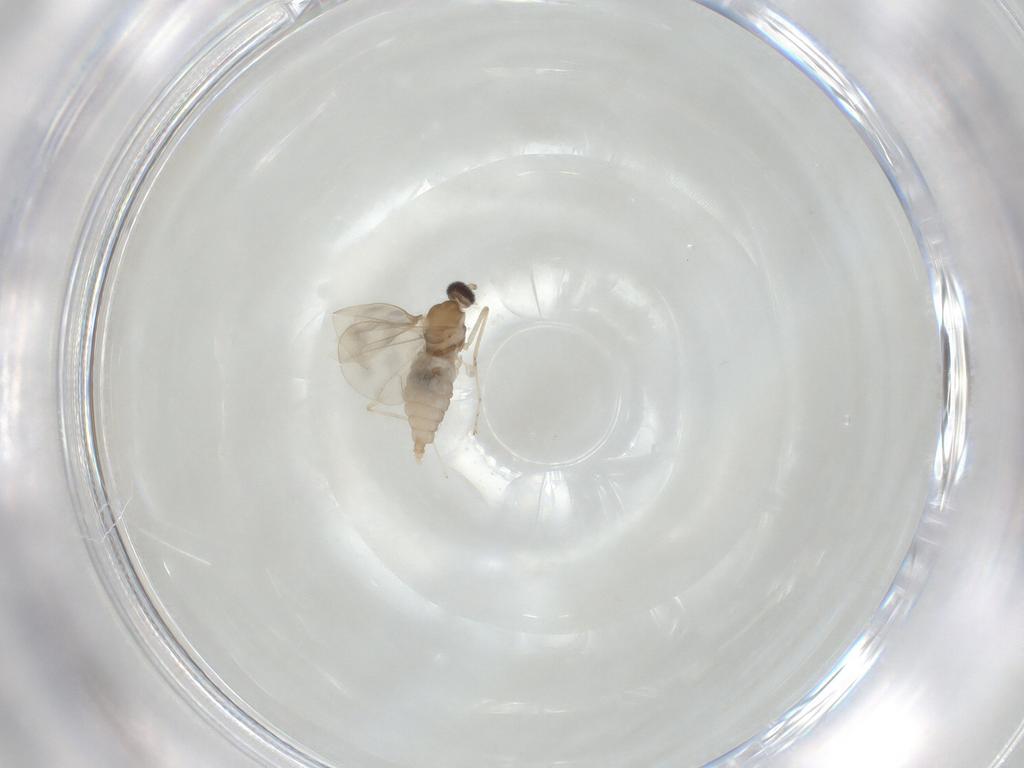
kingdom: Animalia
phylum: Arthropoda
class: Insecta
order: Diptera
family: Cecidomyiidae
